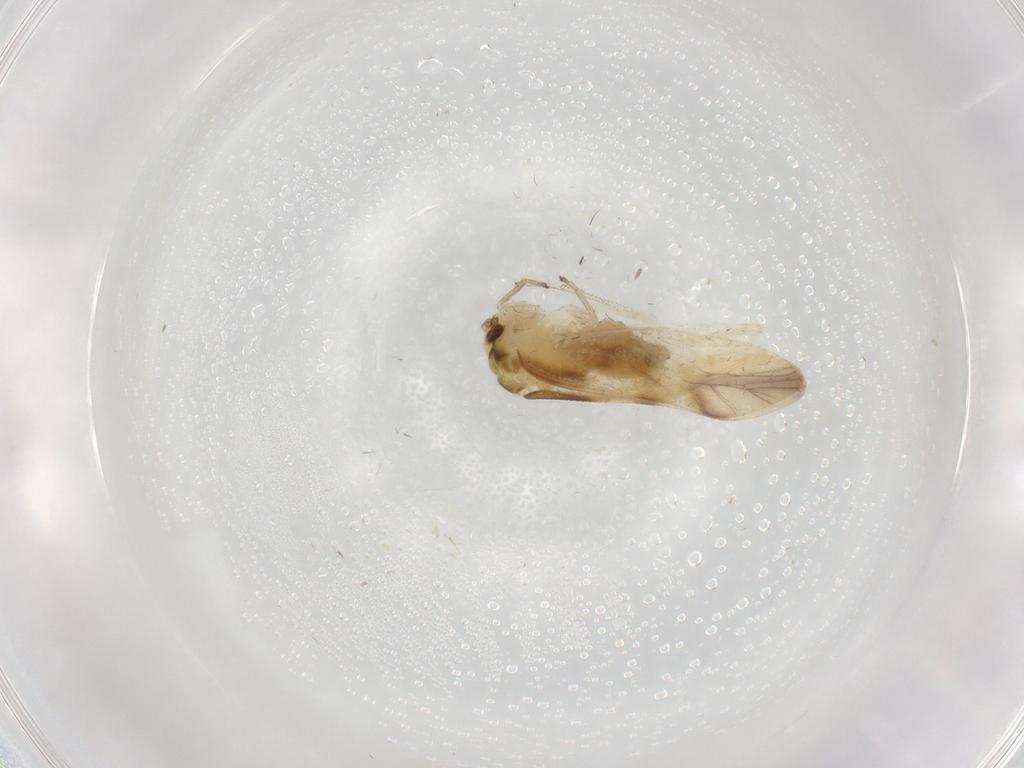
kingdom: Animalia
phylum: Arthropoda
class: Insecta
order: Psocodea
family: Caeciliusidae
